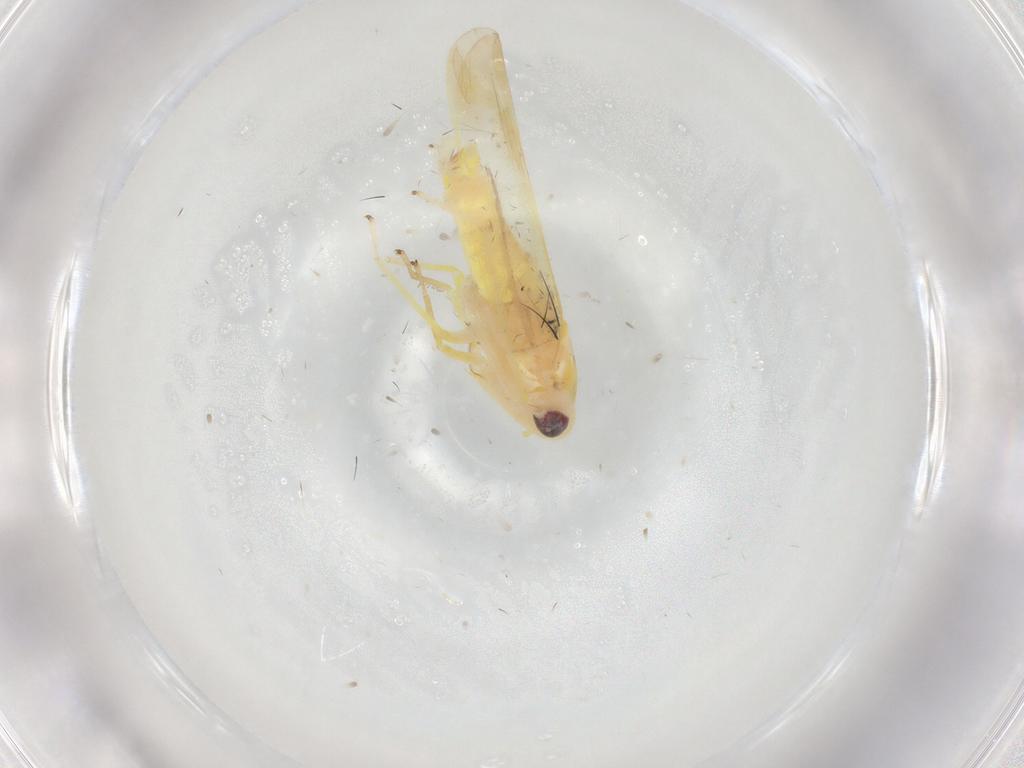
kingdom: Animalia
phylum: Arthropoda
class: Insecta
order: Hemiptera
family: Cicadellidae
